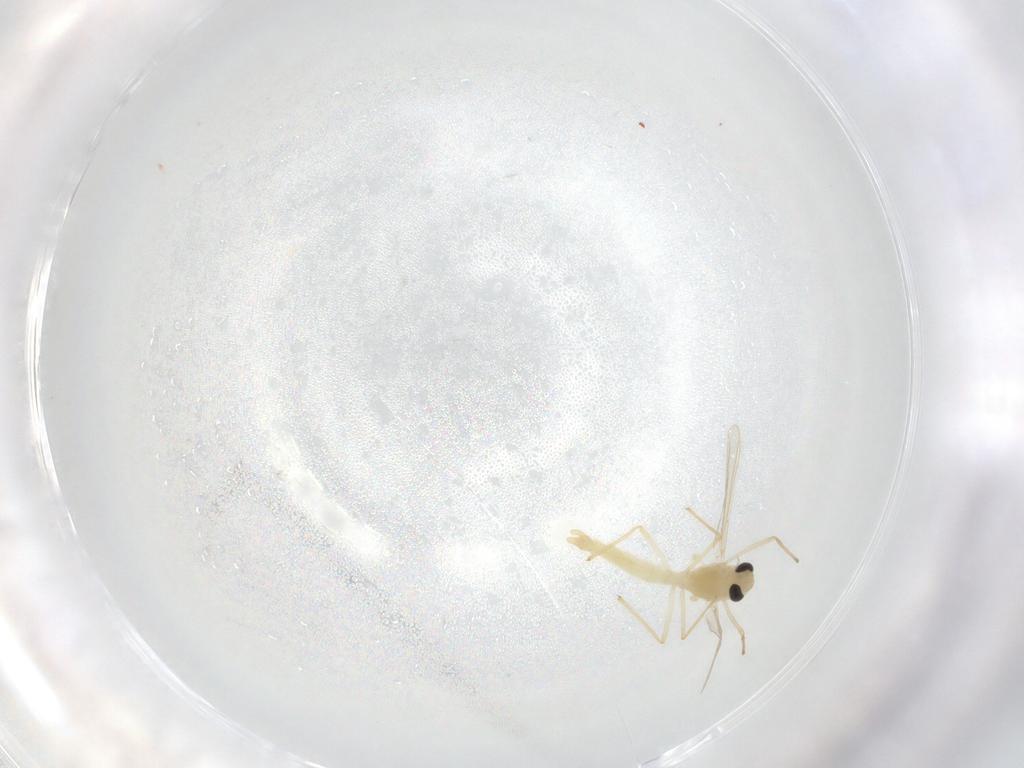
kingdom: Animalia
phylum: Arthropoda
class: Insecta
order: Diptera
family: Chironomidae
